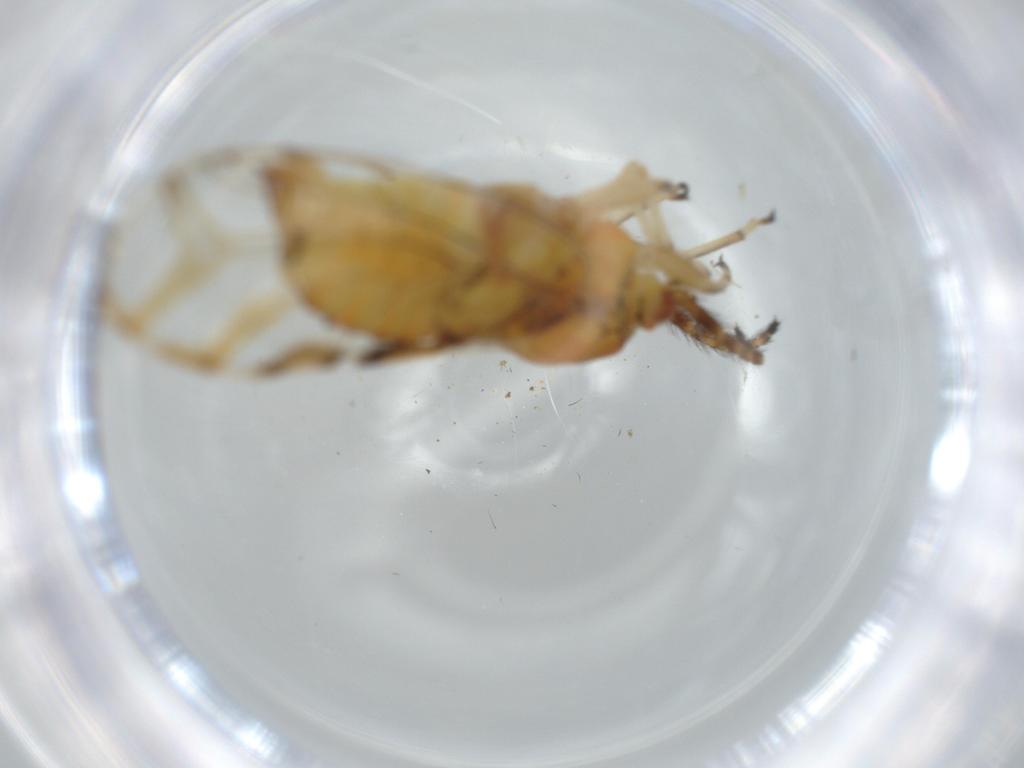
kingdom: Animalia
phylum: Arthropoda
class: Insecta
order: Hemiptera
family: Aphididae
